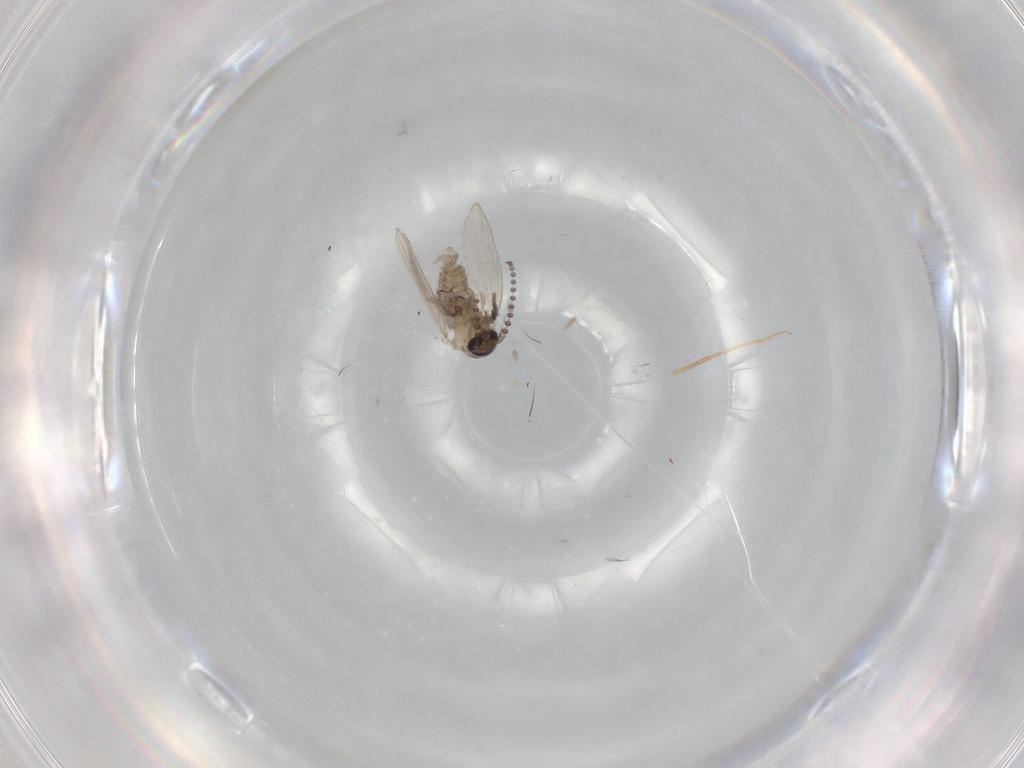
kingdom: Animalia
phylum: Arthropoda
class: Insecta
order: Diptera
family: Psychodidae
